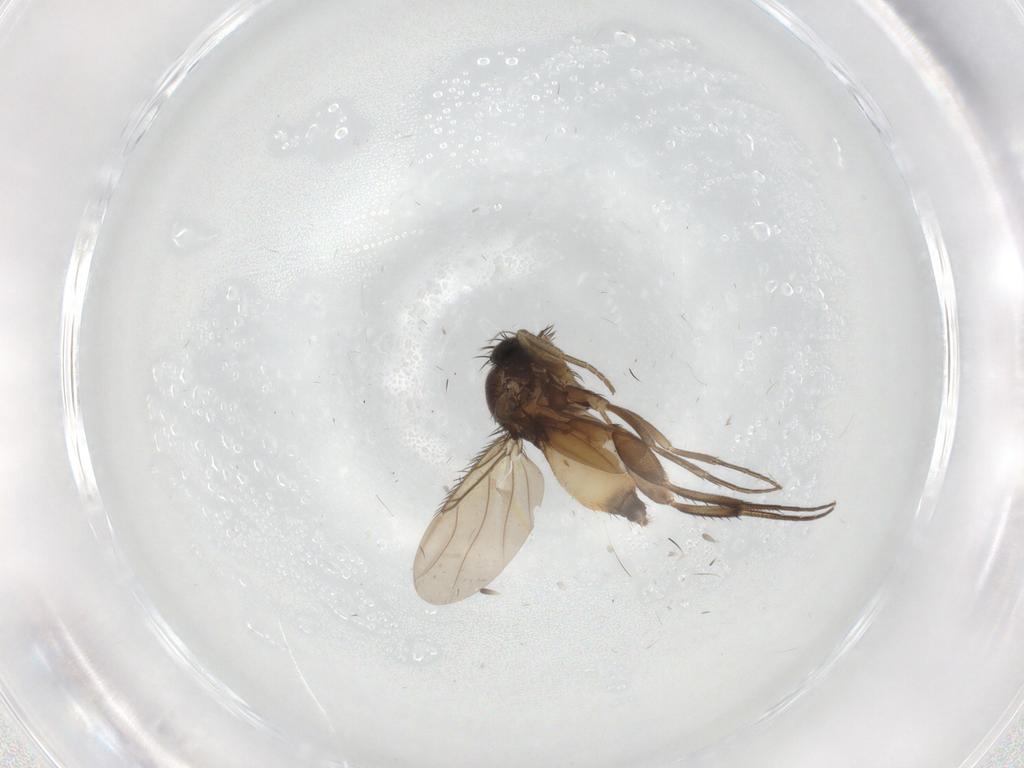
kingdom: Animalia
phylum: Arthropoda
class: Insecta
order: Diptera
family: Phoridae
